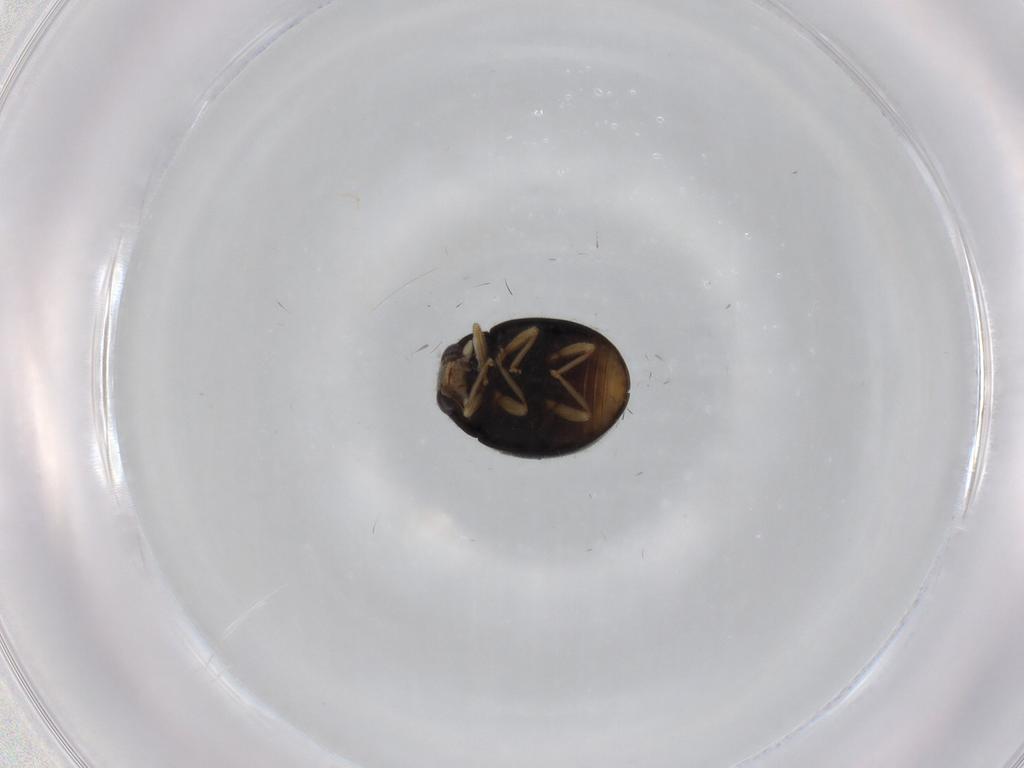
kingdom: Animalia
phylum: Arthropoda
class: Insecta
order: Coleoptera
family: Coccinellidae
